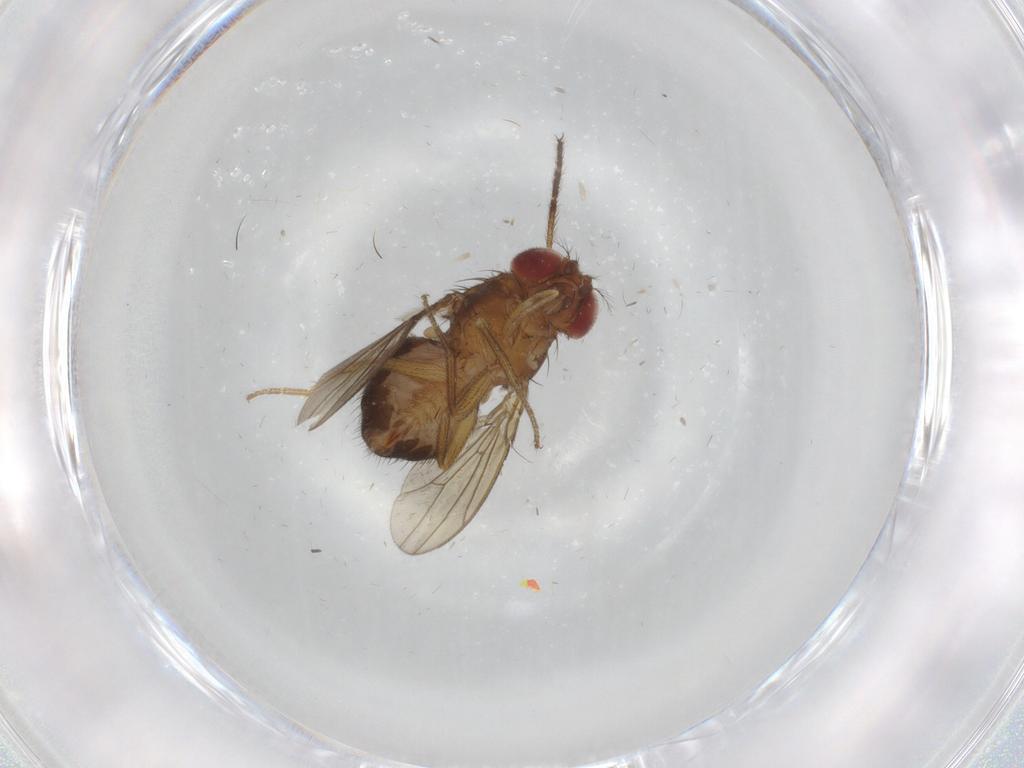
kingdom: Animalia
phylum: Arthropoda
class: Insecta
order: Diptera
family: Drosophilidae
